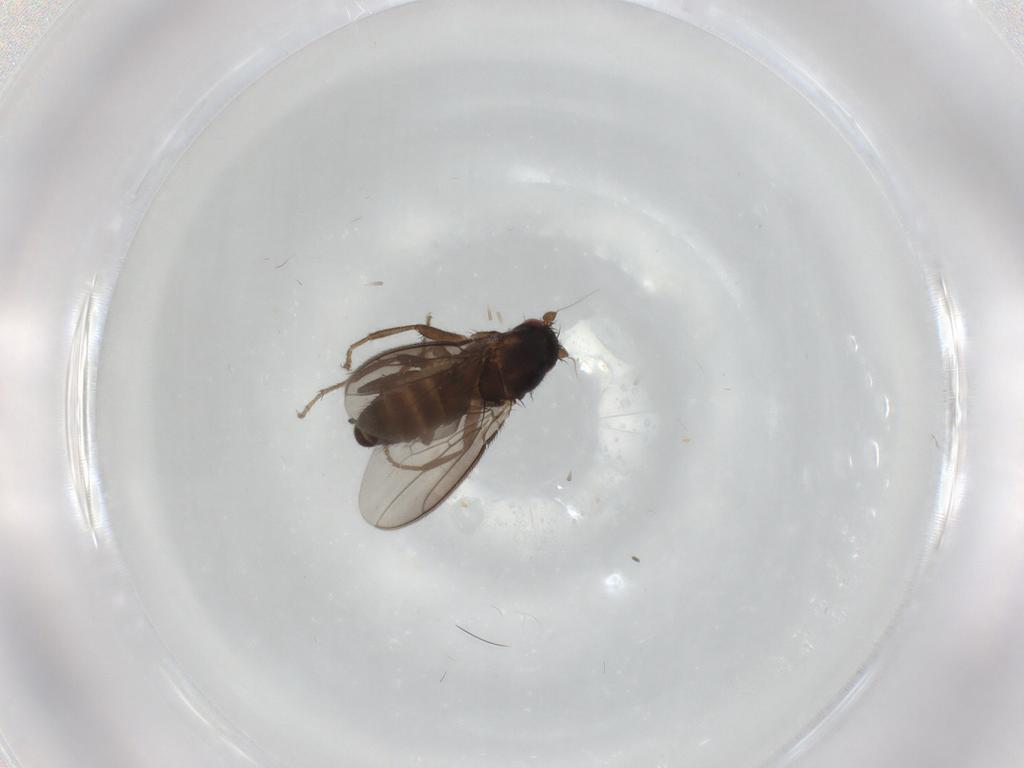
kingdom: Animalia
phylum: Arthropoda
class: Insecta
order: Diptera
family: Sphaeroceridae
